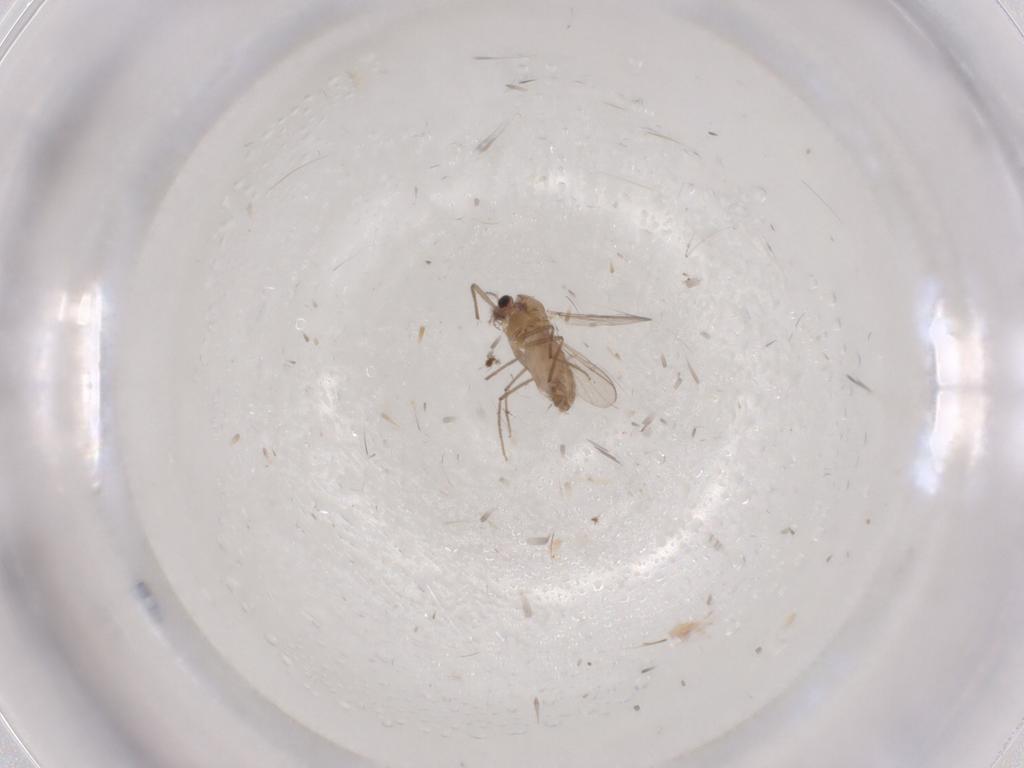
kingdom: Animalia
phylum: Arthropoda
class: Insecta
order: Diptera
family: Chironomidae
